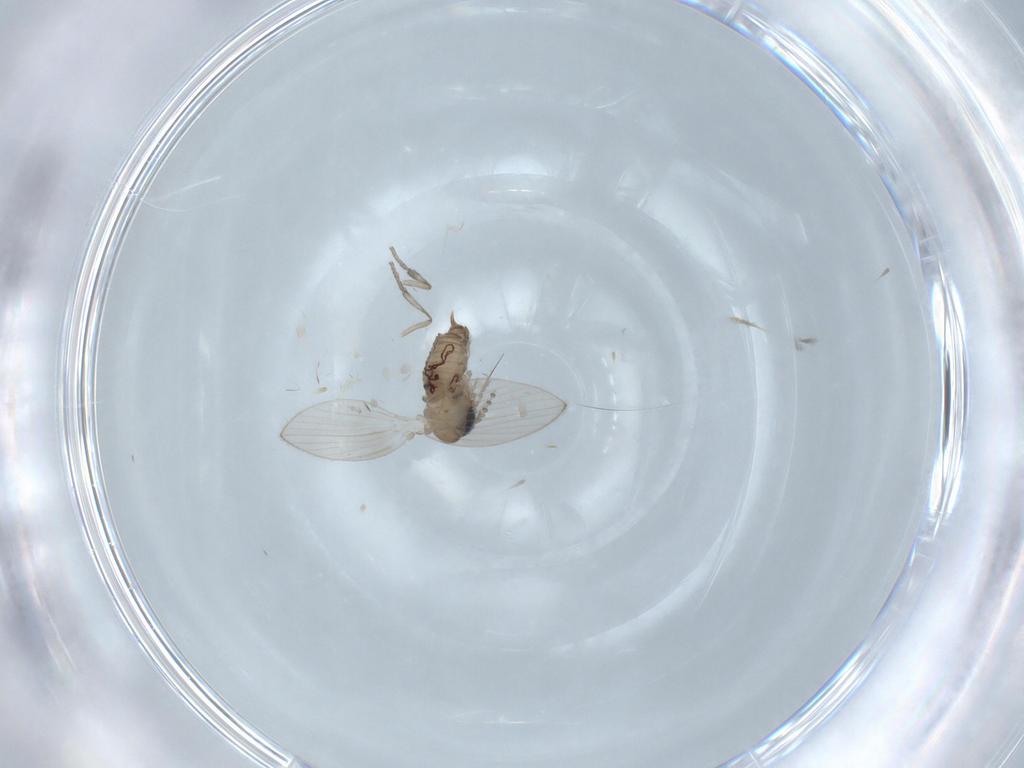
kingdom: Animalia
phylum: Arthropoda
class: Insecta
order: Diptera
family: Psychodidae
